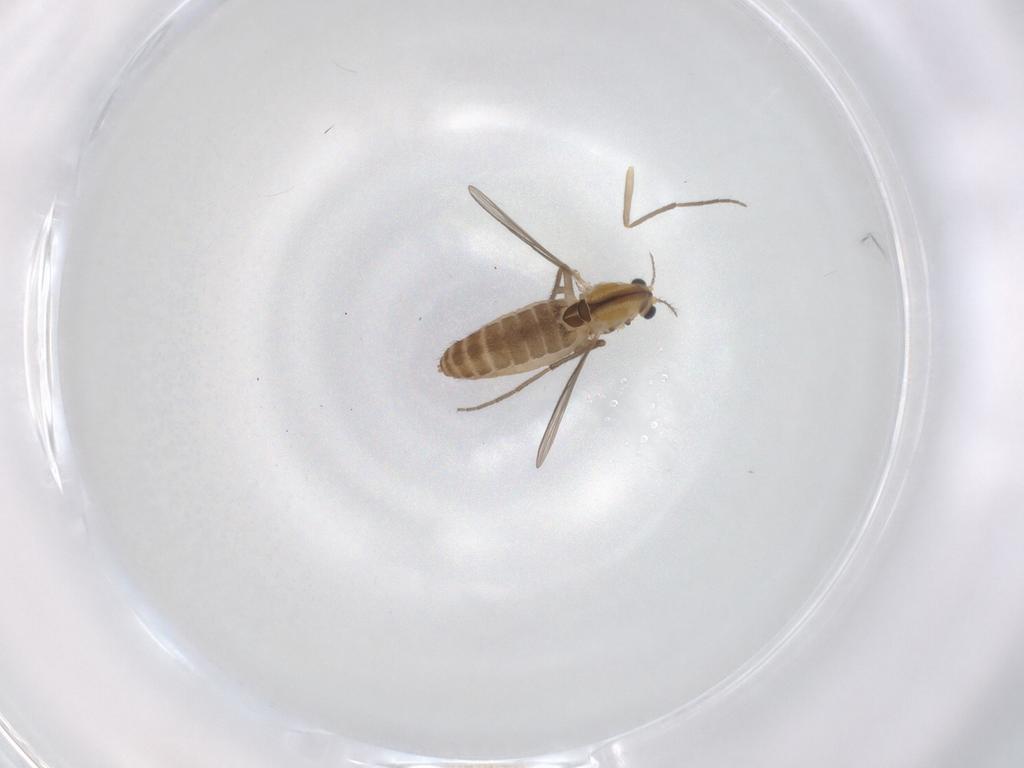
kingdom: Animalia
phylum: Arthropoda
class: Insecta
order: Diptera
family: Chironomidae
